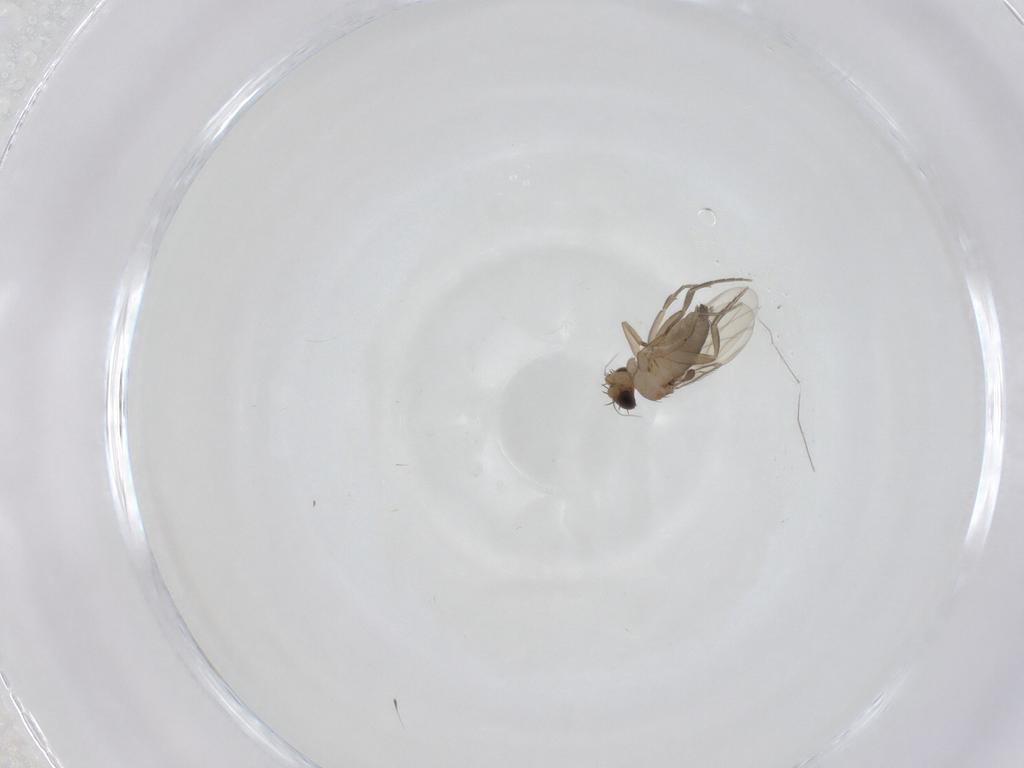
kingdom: Animalia
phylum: Arthropoda
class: Insecta
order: Diptera
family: Phoridae
